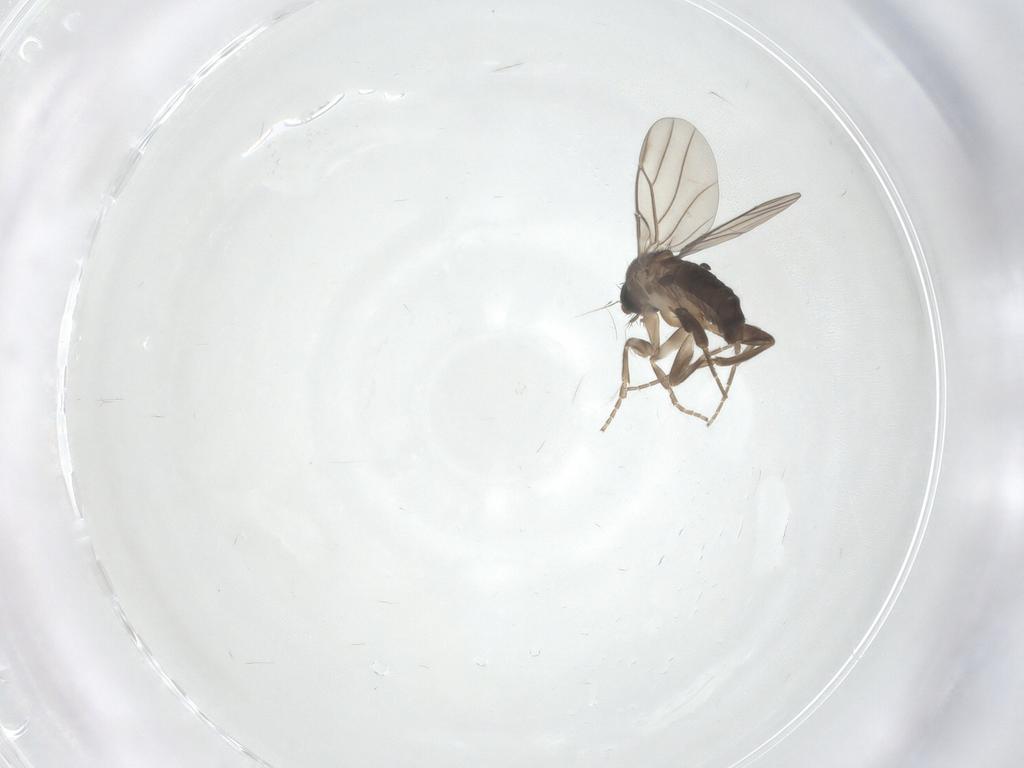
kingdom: Animalia
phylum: Arthropoda
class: Insecta
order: Diptera
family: Phoridae
